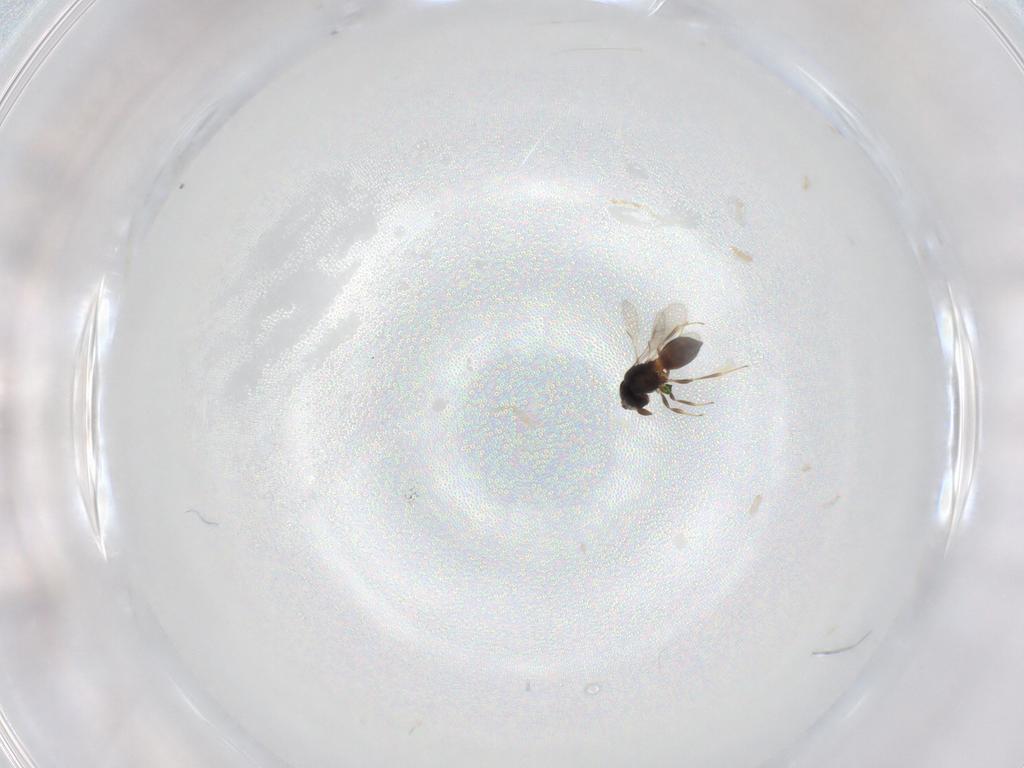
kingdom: Animalia
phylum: Arthropoda
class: Insecta
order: Hymenoptera
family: Scelionidae
